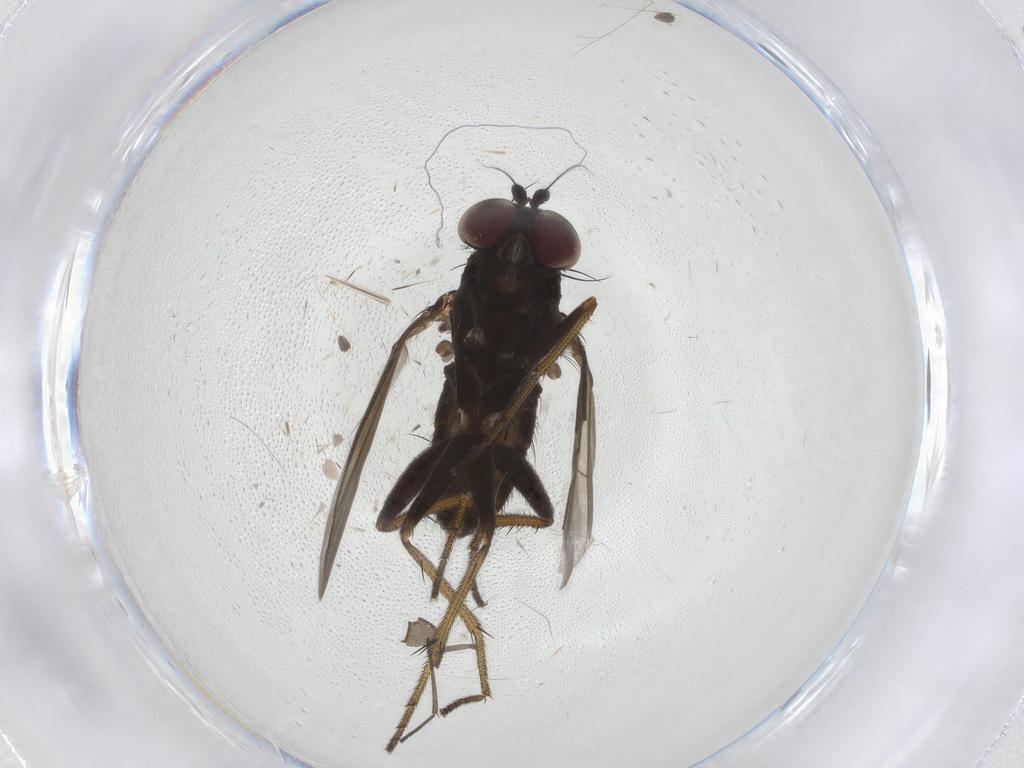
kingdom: Animalia
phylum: Arthropoda
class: Insecta
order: Diptera
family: Dolichopodidae
